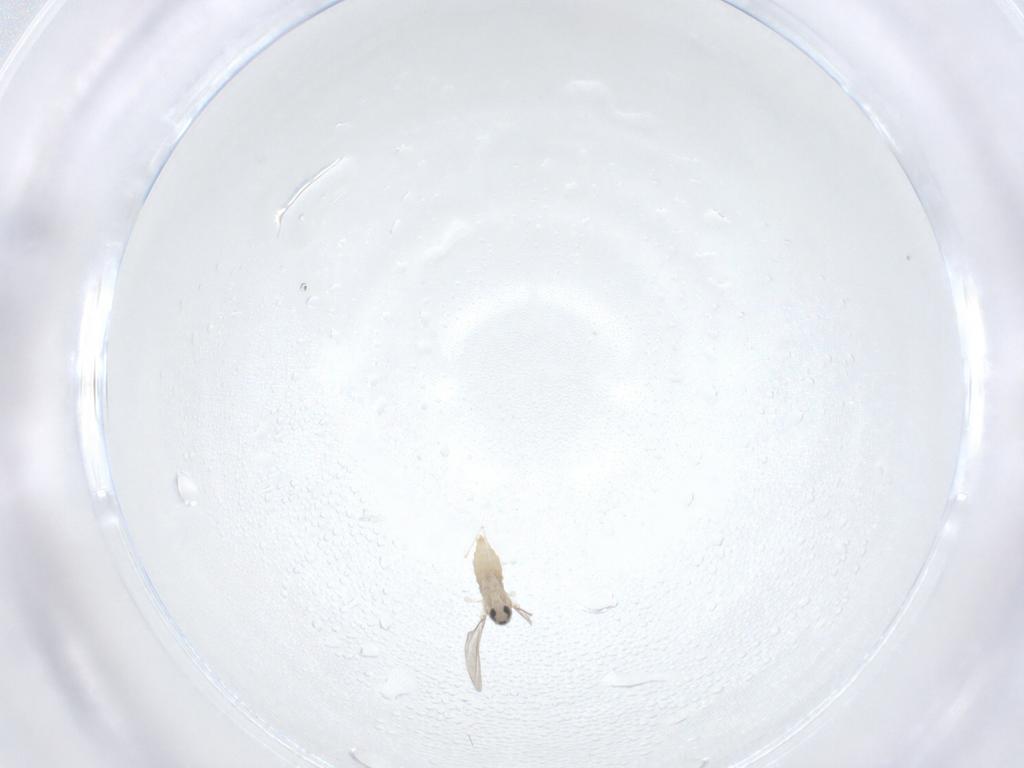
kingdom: Animalia
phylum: Arthropoda
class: Insecta
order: Diptera
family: Cecidomyiidae
